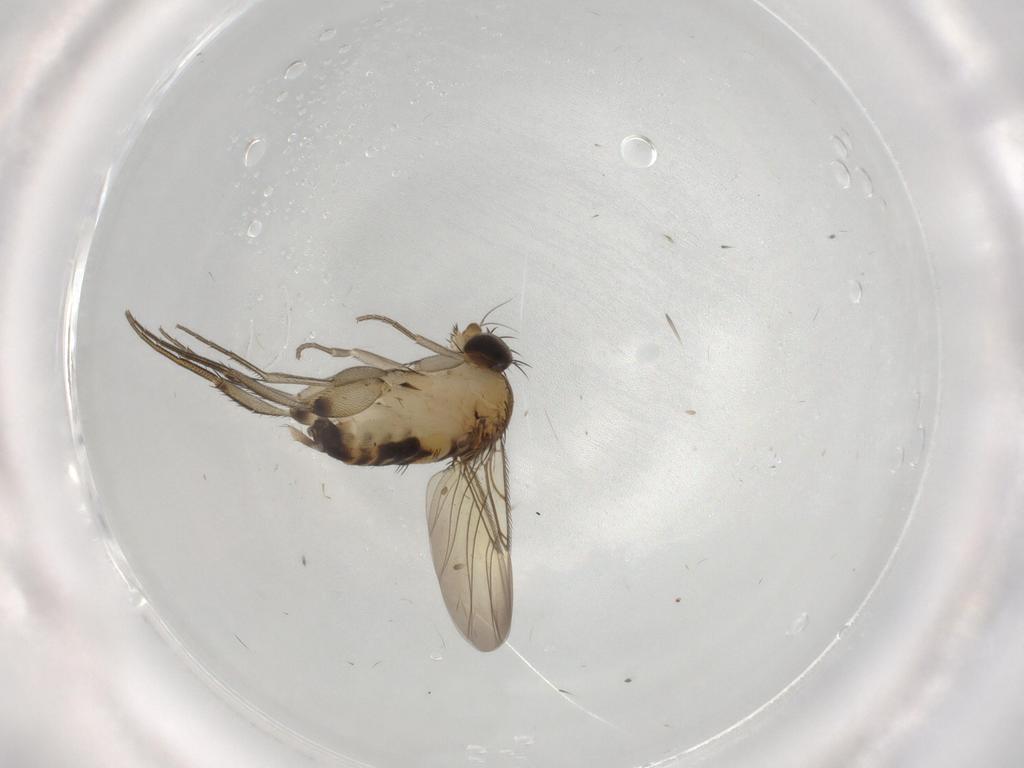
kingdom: Animalia
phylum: Arthropoda
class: Insecta
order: Diptera
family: Phoridae
